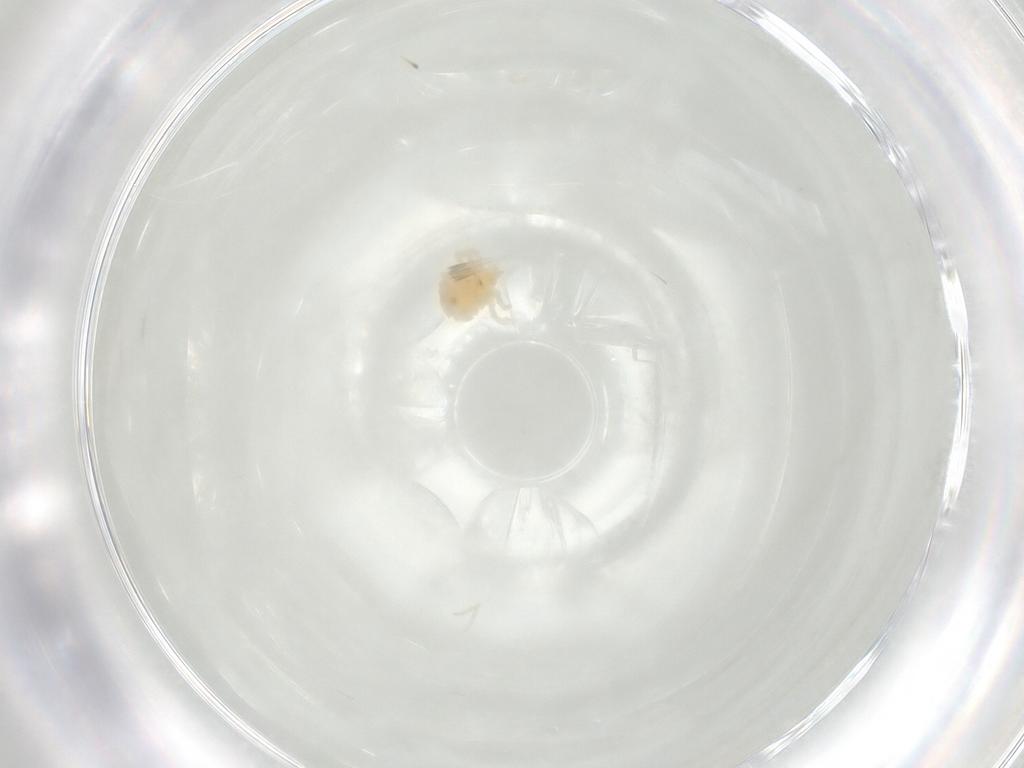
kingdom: Animalia
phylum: Arthropoda
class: Arachnida
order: Trombidiformes
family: Anystidae
